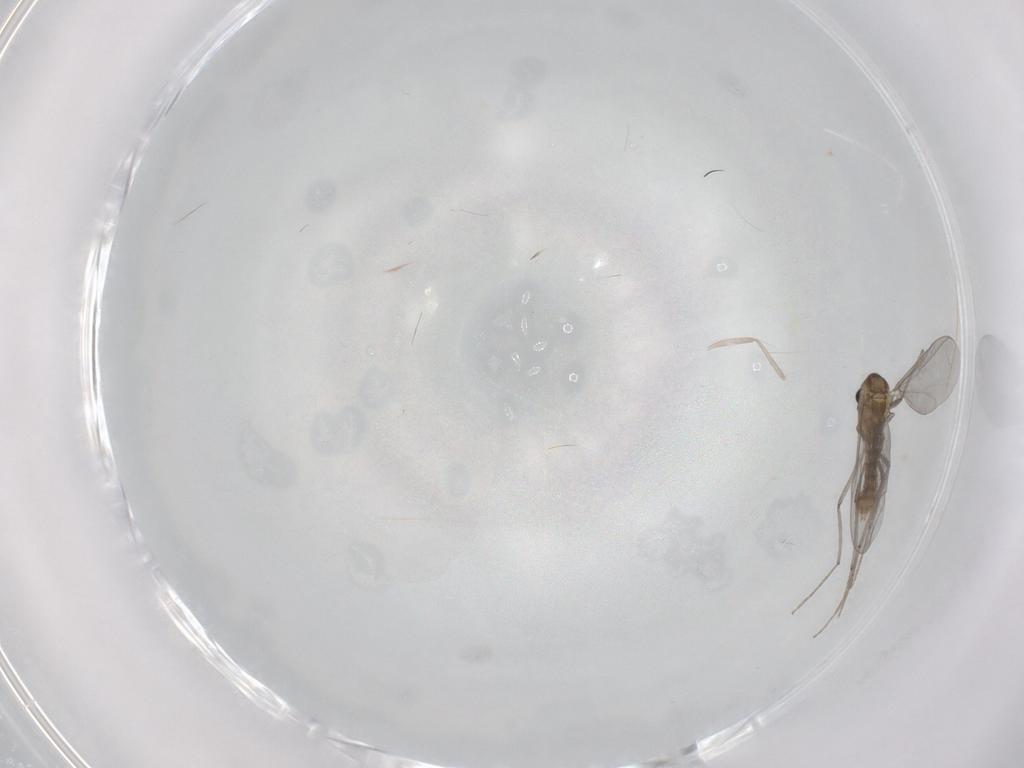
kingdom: Animalia
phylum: Arthropoda
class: Insecta
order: Diptera
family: Chironomidae
